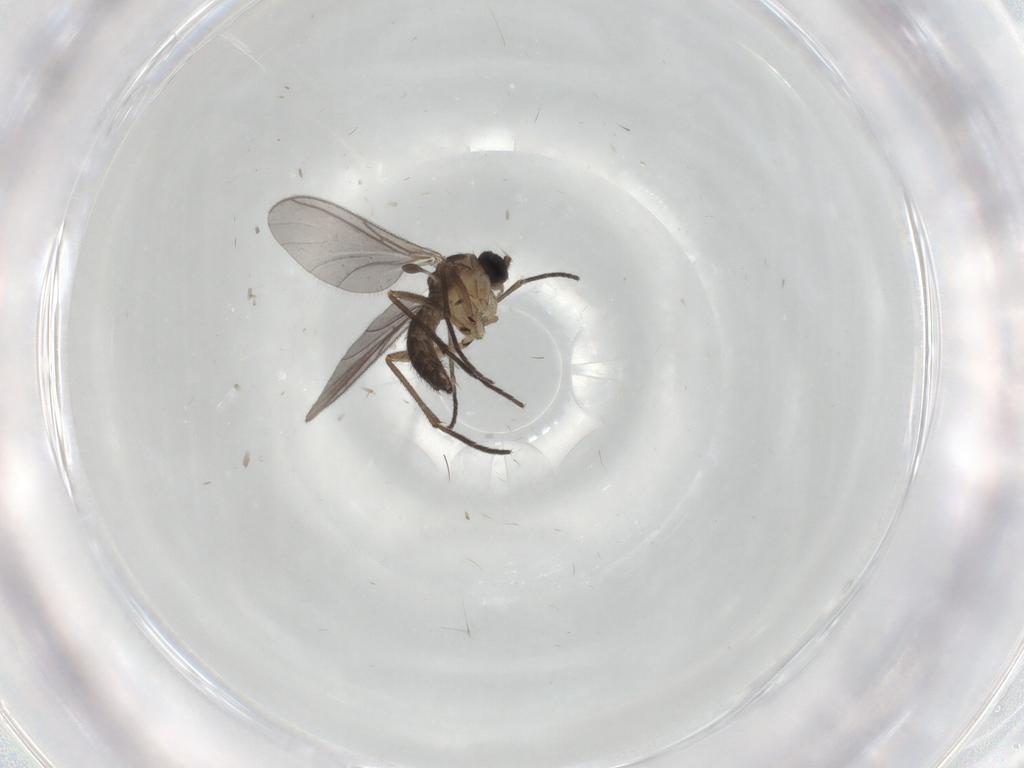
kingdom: Animalia
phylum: Arthropoda
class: Insecta
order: Diptera
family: Sciaridae
